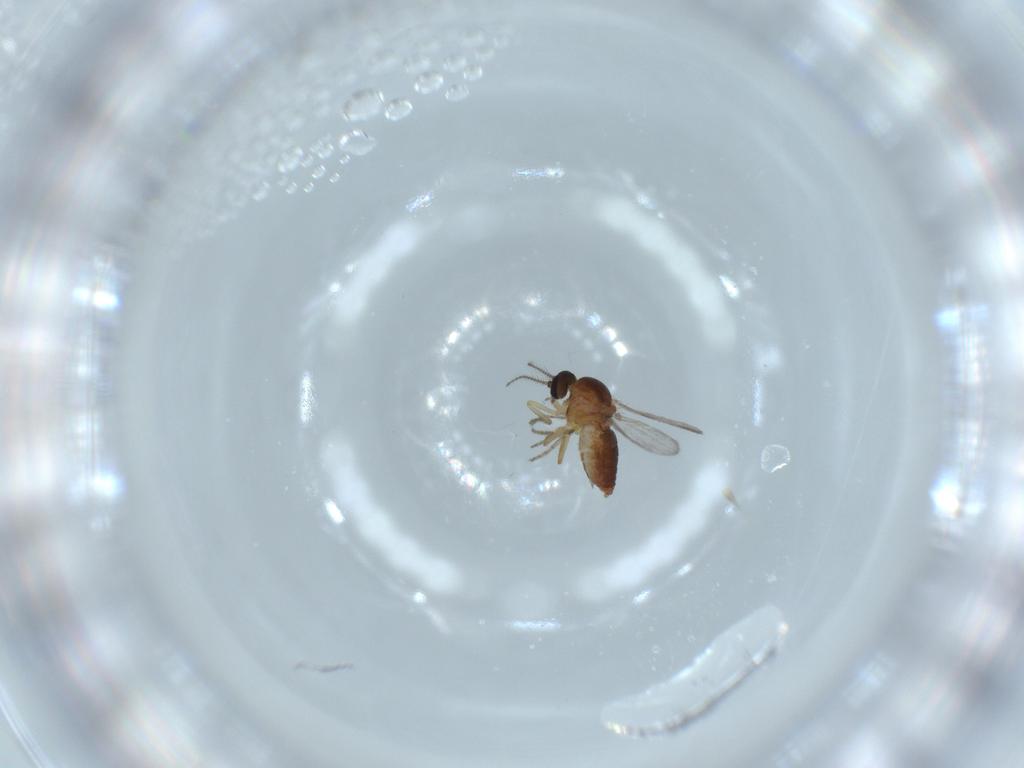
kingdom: Animalia
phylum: Arthropoda
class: Insecta
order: Diptera
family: Ceratopogonidae
